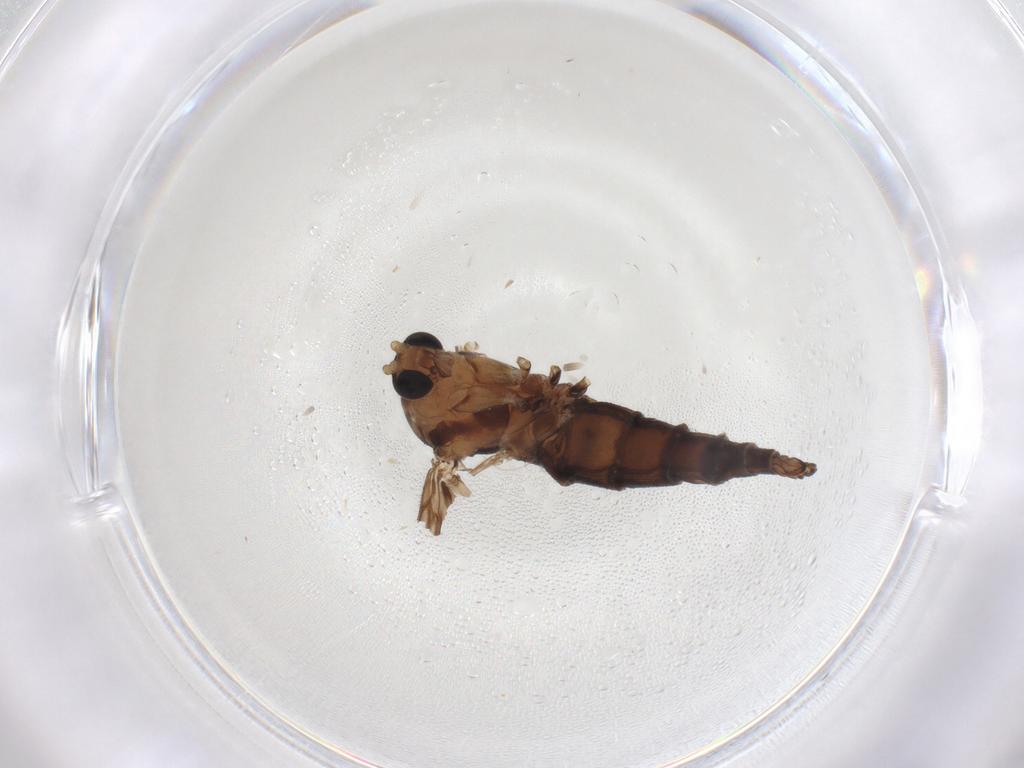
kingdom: Animalia
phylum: Arthropoda
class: Insecta
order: Diptera
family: Sciaridae
